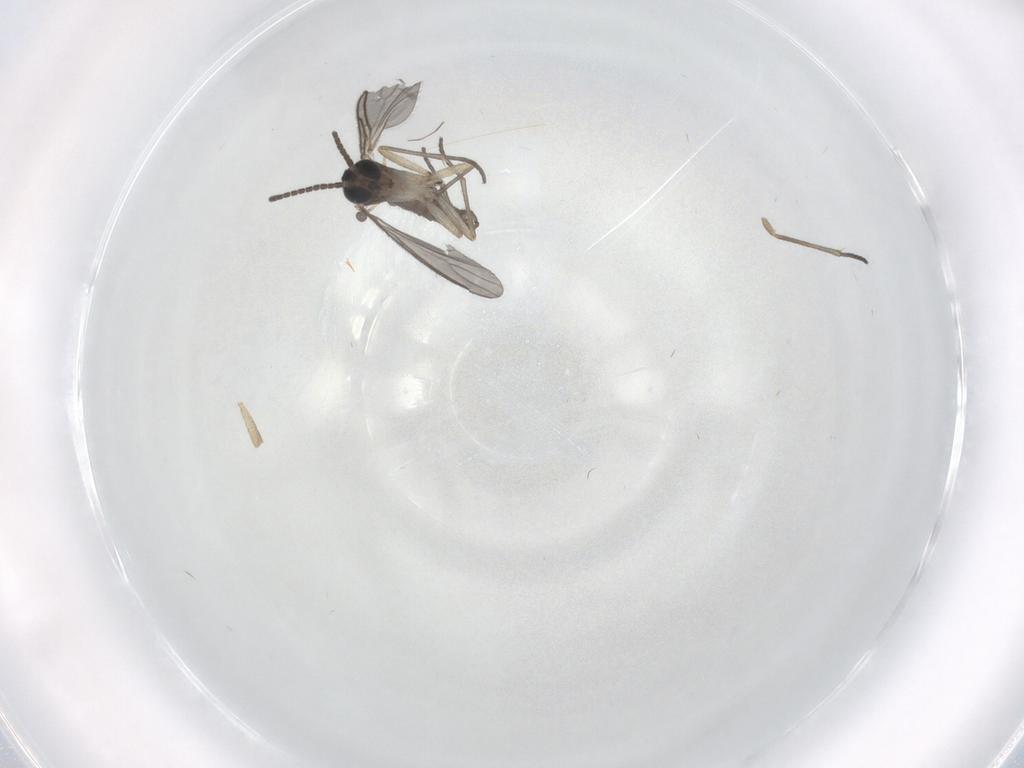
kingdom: Animalia
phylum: Arthropoda
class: Insecta
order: Diptera
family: Sciaridae
